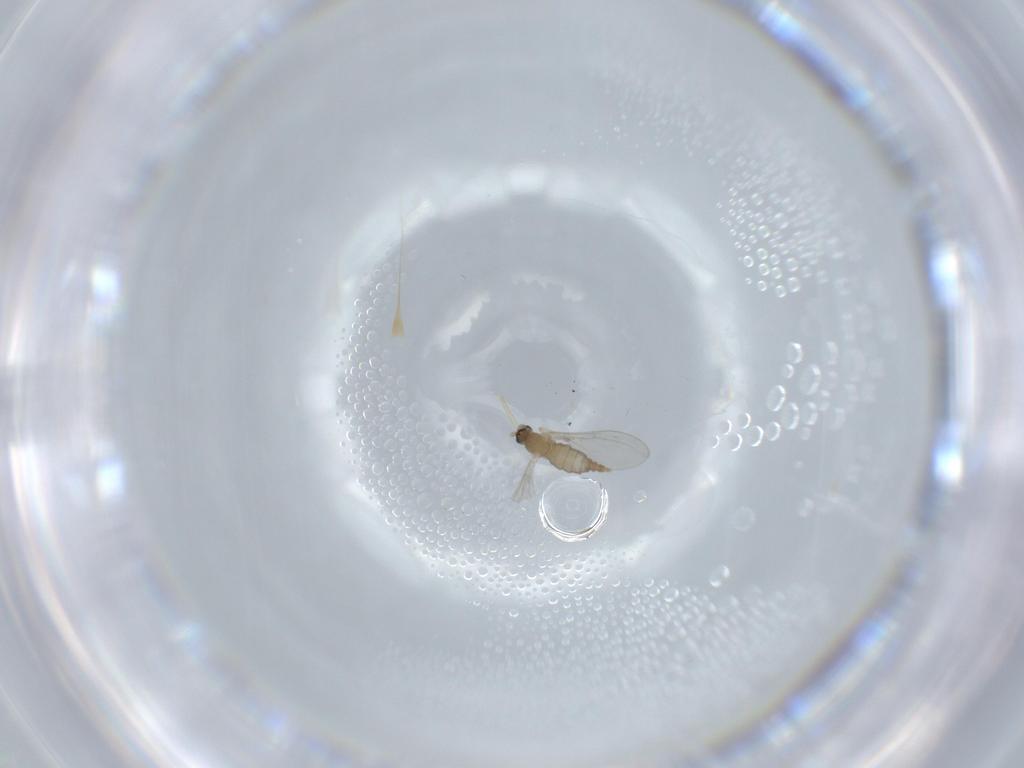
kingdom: Animalia
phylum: Arthropoda
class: Insecta
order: Diptera
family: Cecidomyiidae
